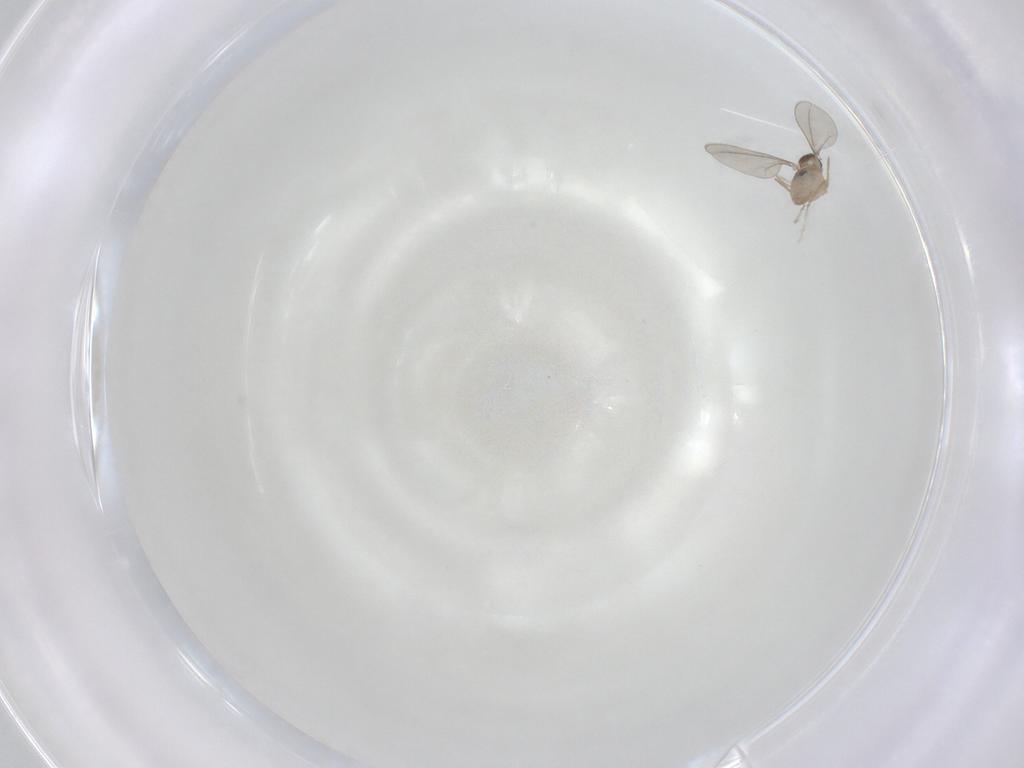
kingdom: Animalia
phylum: Arthropoda
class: Insecta
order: Diptera
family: Cecidomyiidae
